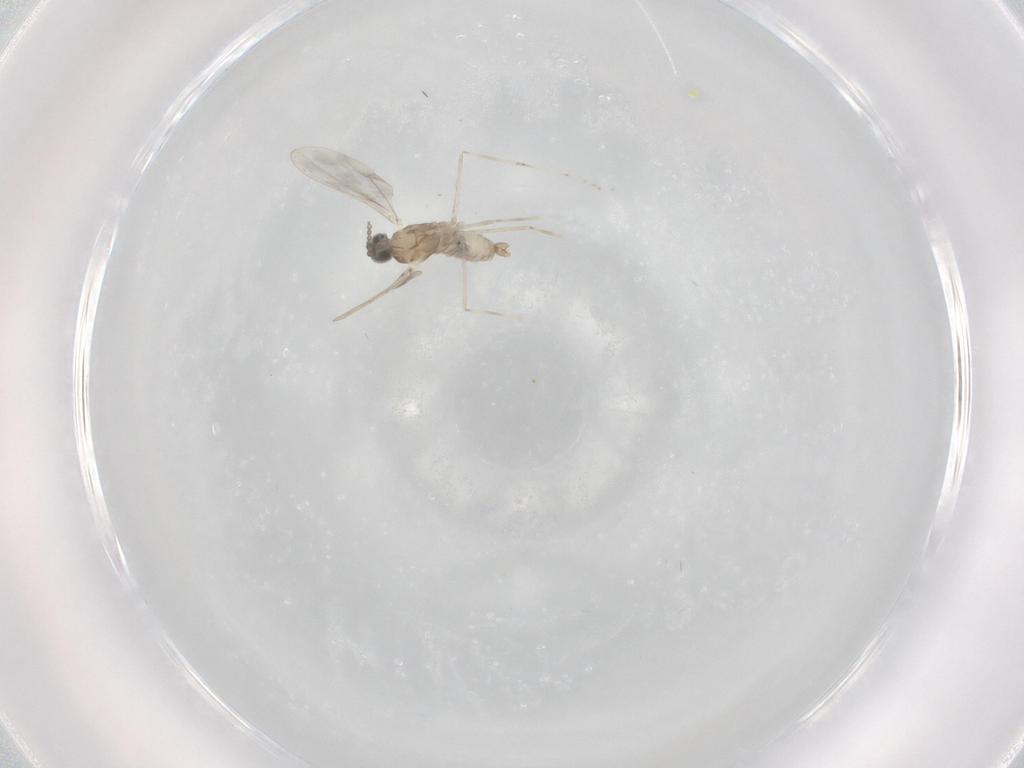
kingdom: Animalia
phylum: Arthropoda
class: Insecta
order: Diptera
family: Cecidomyiidae
